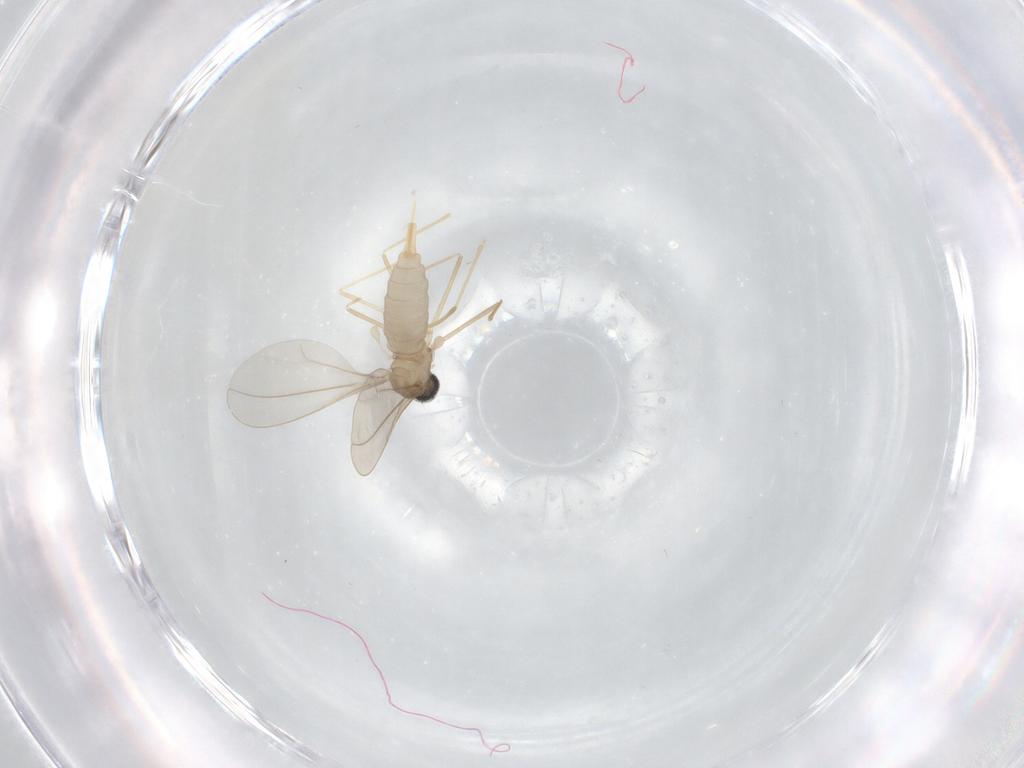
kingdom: Animalia
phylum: Arthropoda
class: Insecta
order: Diptera
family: Cecidomyiidae
